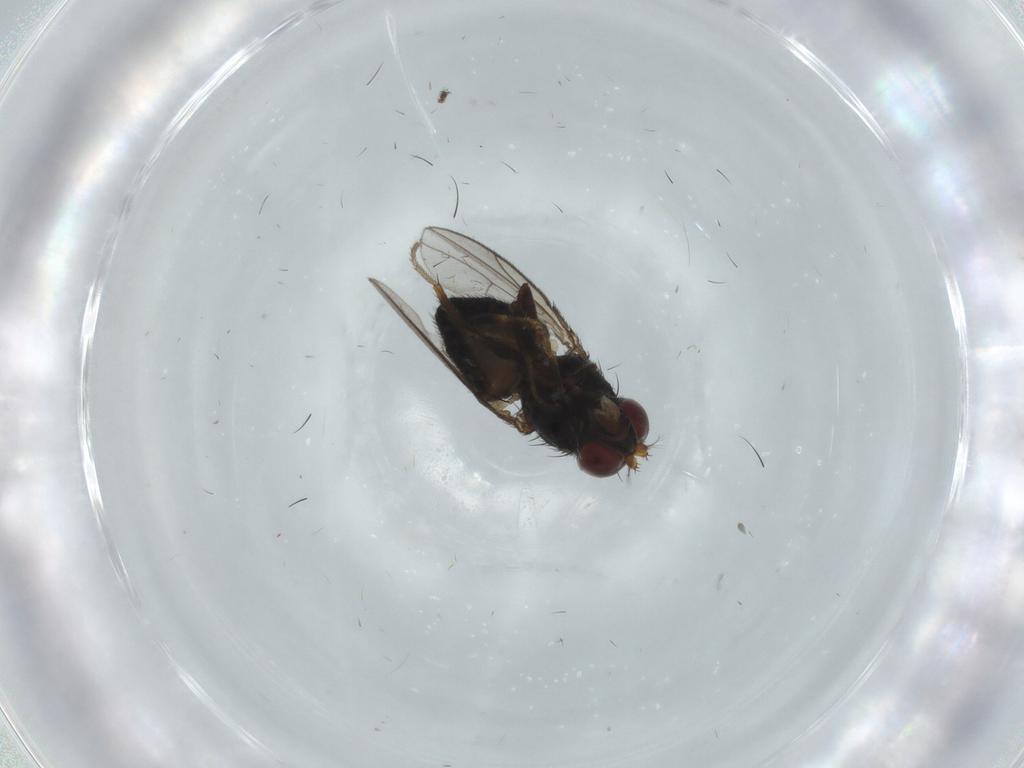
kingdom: Animalia
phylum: Arthropoda
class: Insecta
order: Diptera
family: Ephydridae
